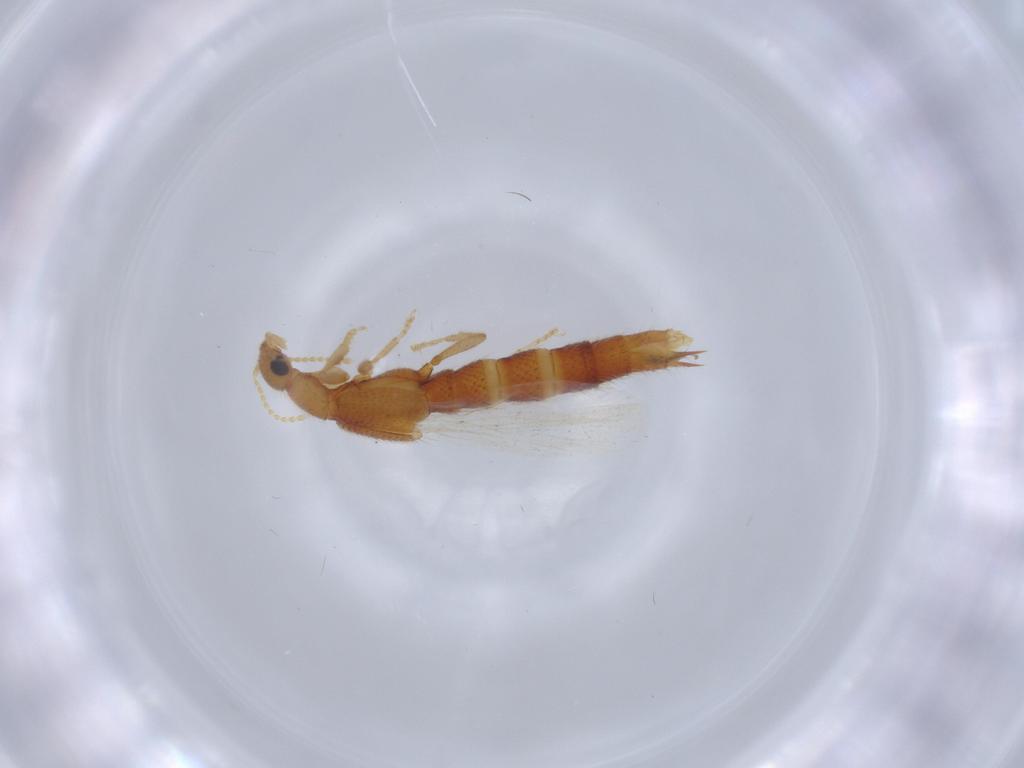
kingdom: Animalia
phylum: Arthropoda
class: Insecta
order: Coleoptera
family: Staphylinidae
